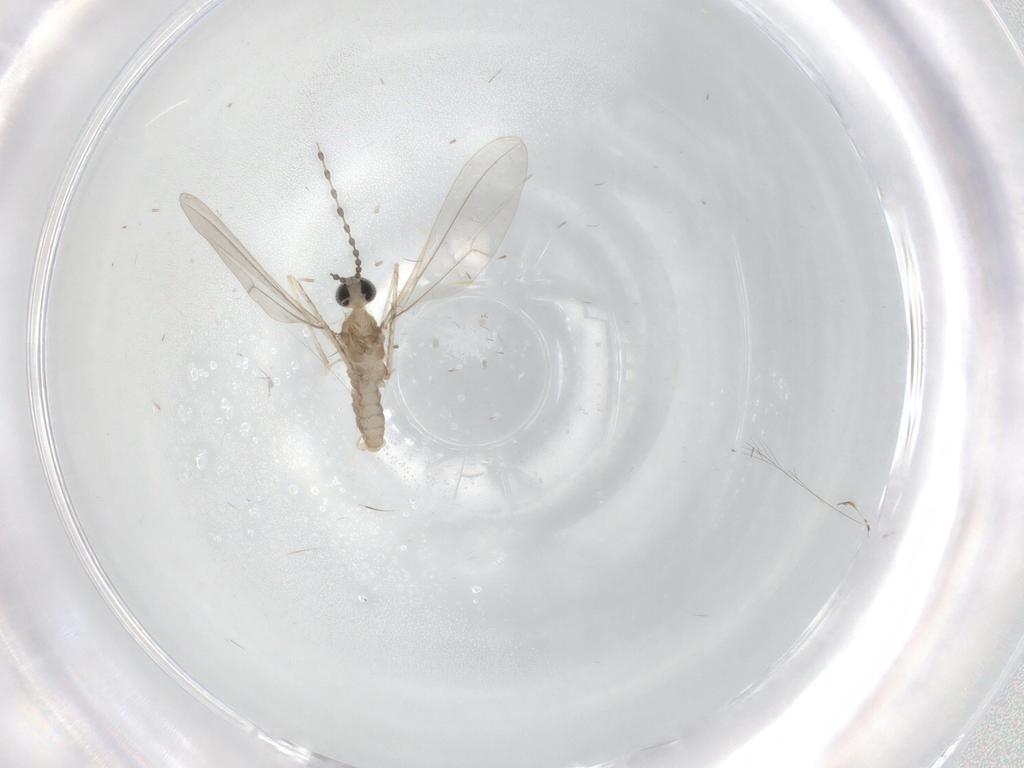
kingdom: Animalia
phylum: Arthropoda
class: Insecta
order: Diptera
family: Cecidomyiidae
